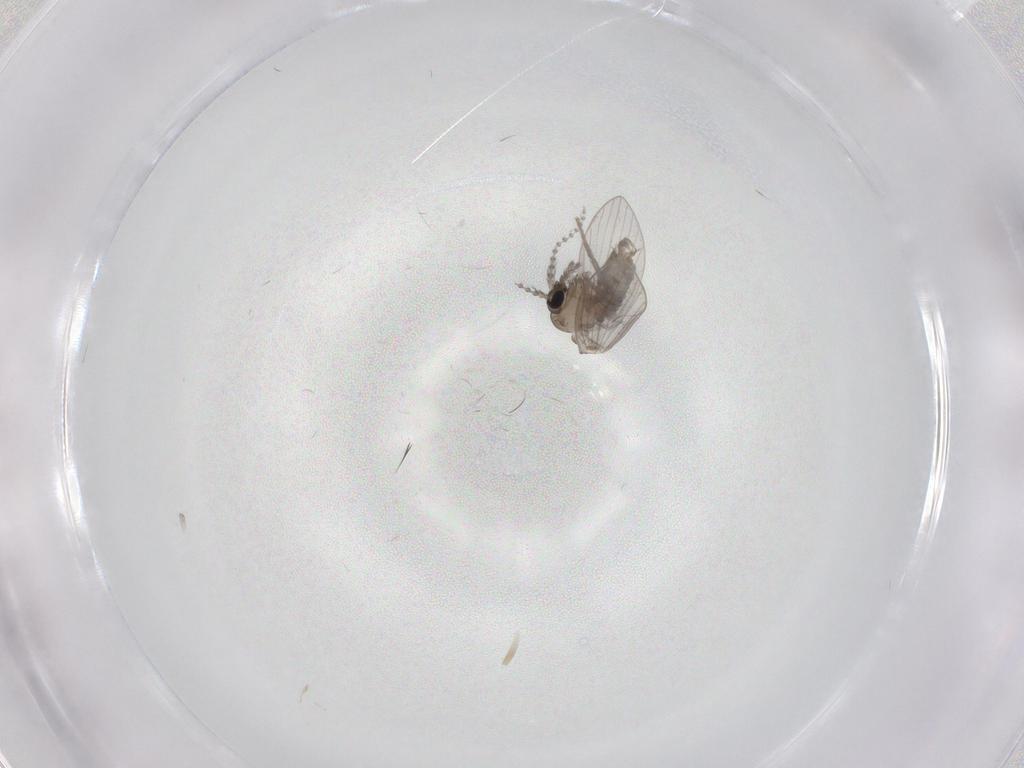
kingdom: Animalia
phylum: Arthropoda
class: Insecta
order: Diptera
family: Psychodidae
